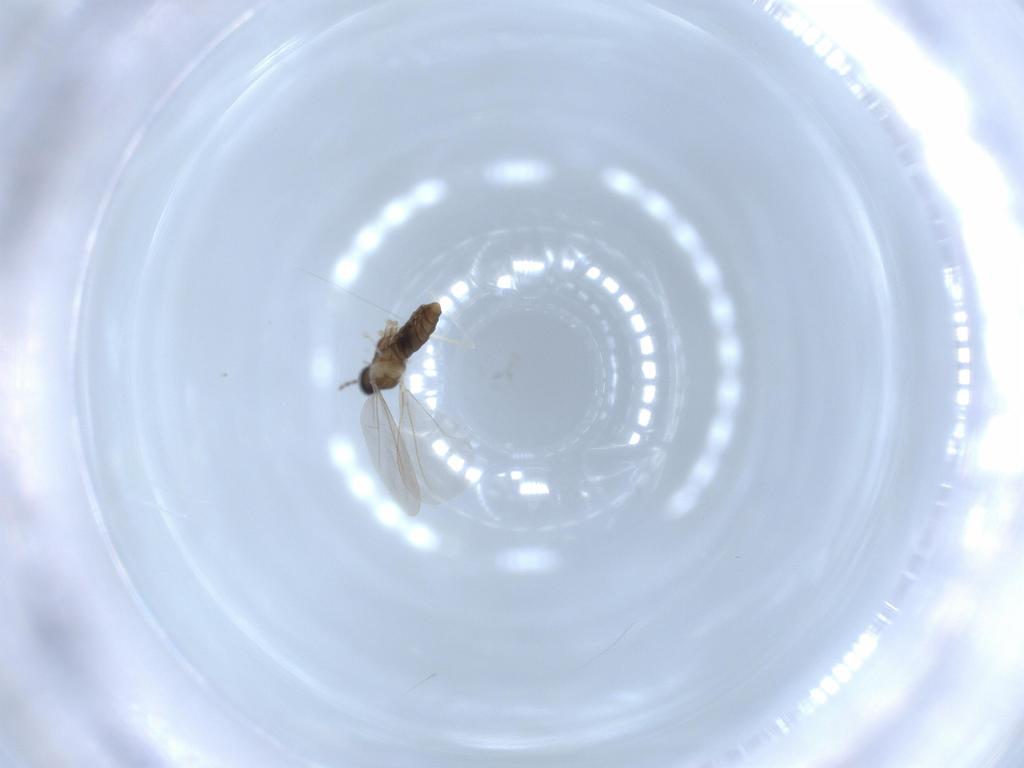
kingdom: Animalia
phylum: Arthropoda
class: Insecta
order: Diptera
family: Cecidomyiidae
